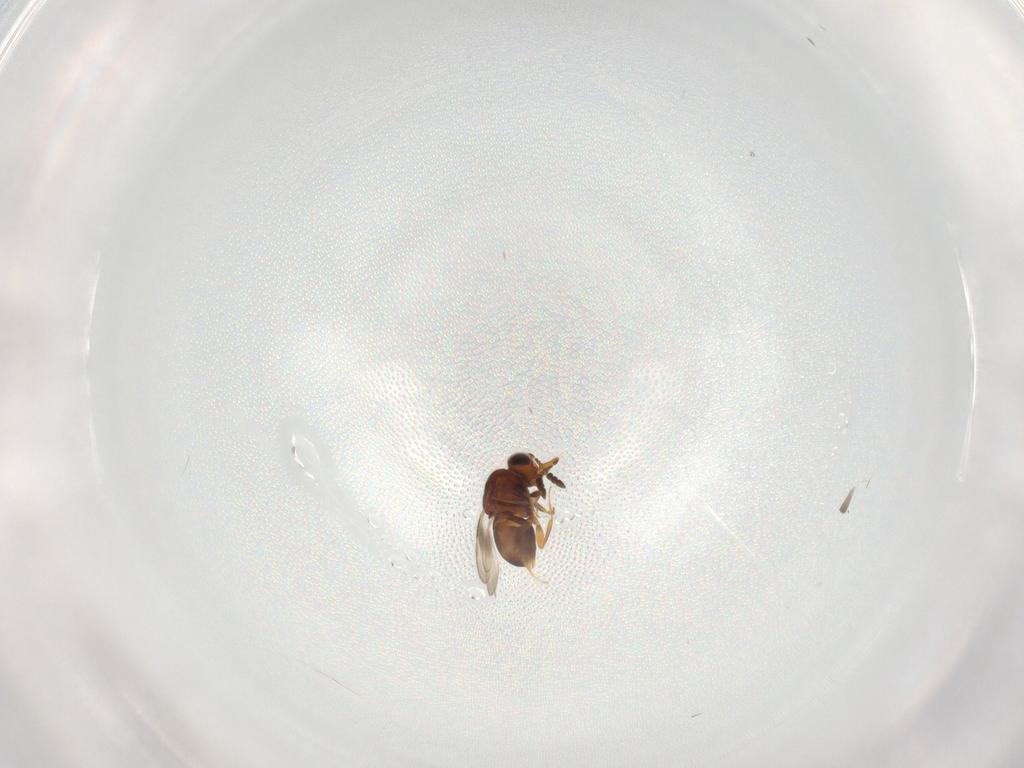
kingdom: Animalia
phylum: Arthropoda
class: Insecta
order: Hymenoptera
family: Ceraphronidae
